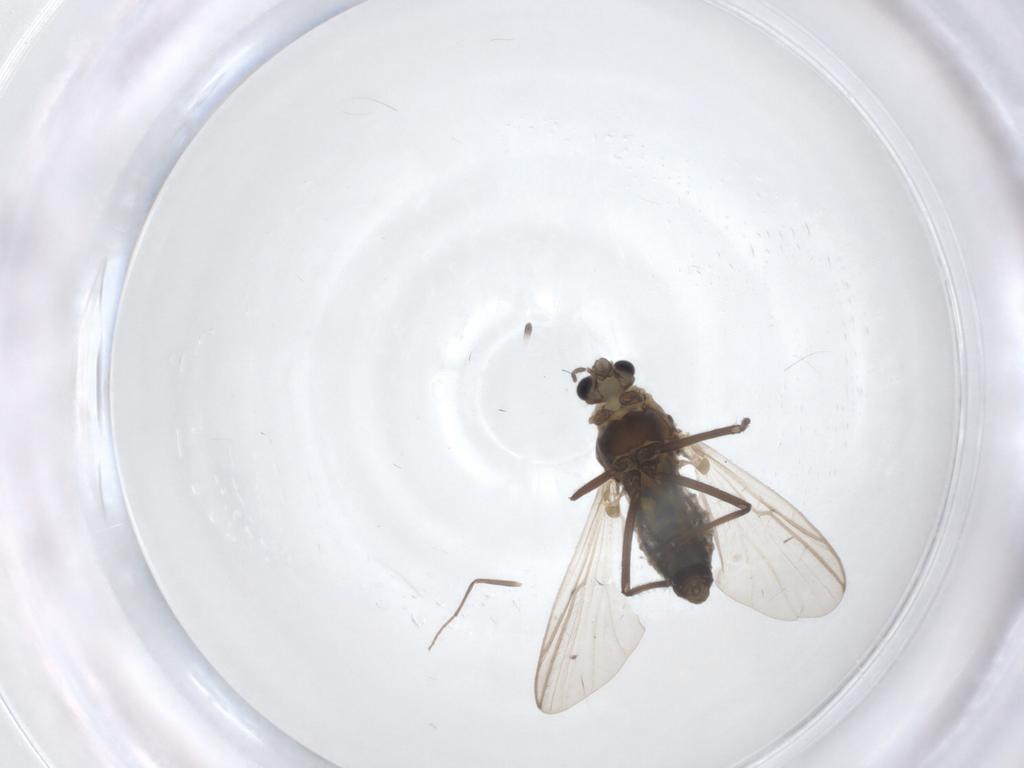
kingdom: Animalia
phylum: Arthropoda
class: Insecta
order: Diptera
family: Chironomidae
